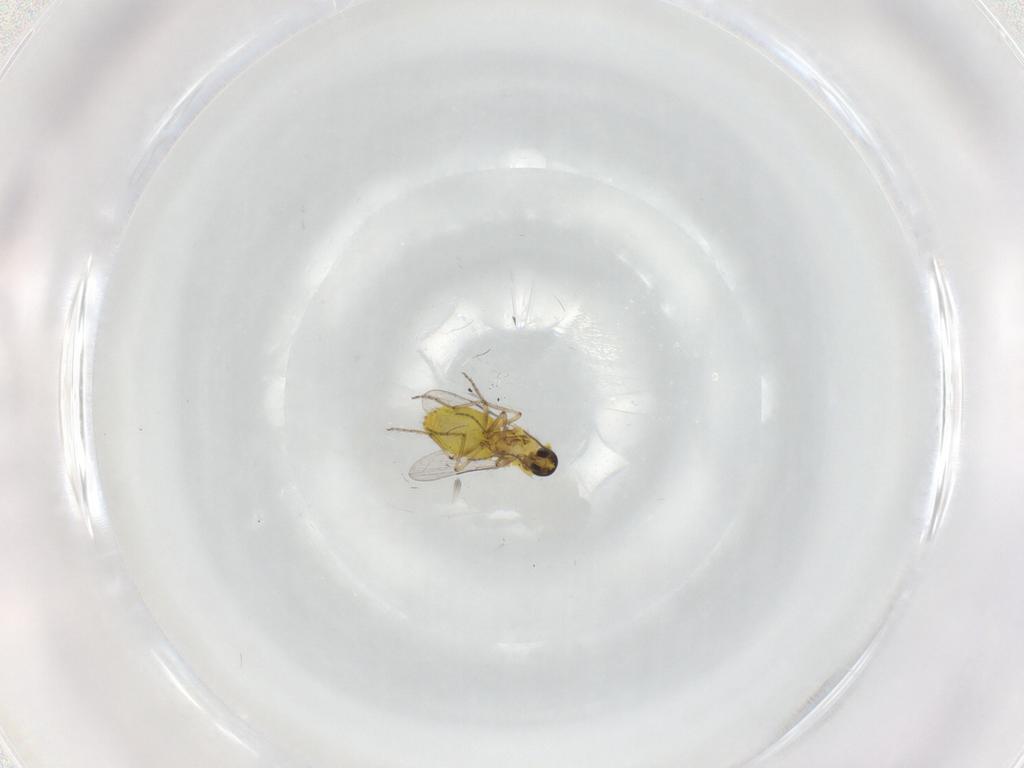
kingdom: Animalia
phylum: Arthropoda
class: Insecta
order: Diptera
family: Ceratopogonidae
